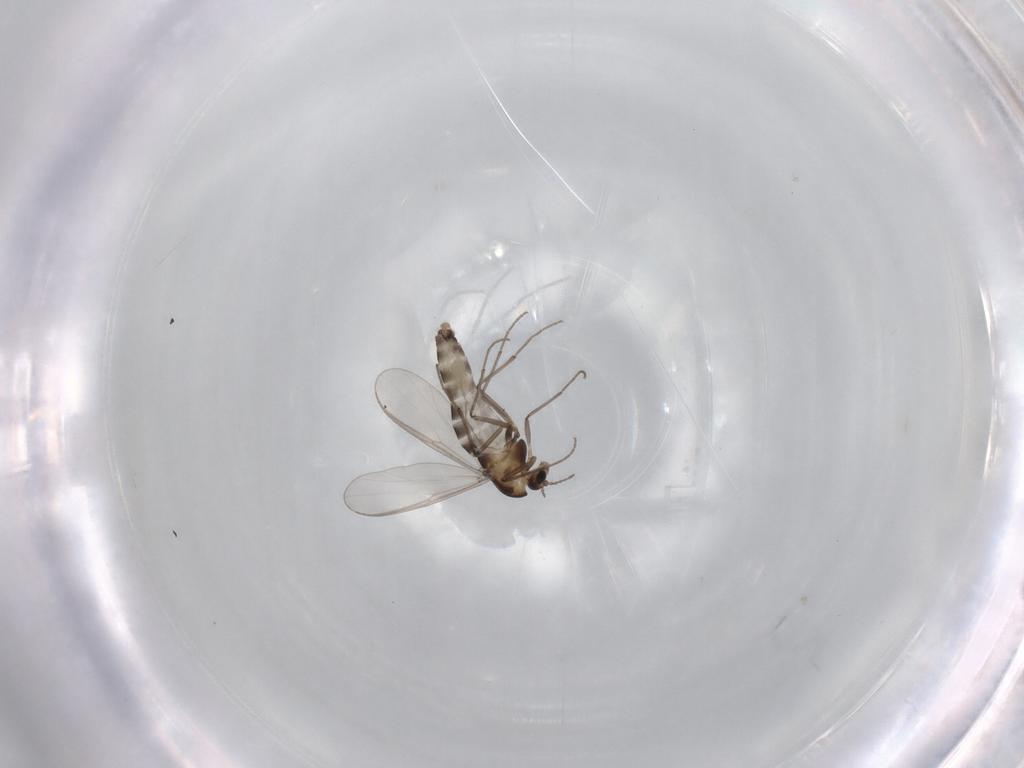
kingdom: Animalia
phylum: Arthropoda
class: Insecta
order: Diptera
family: Chironomidae
